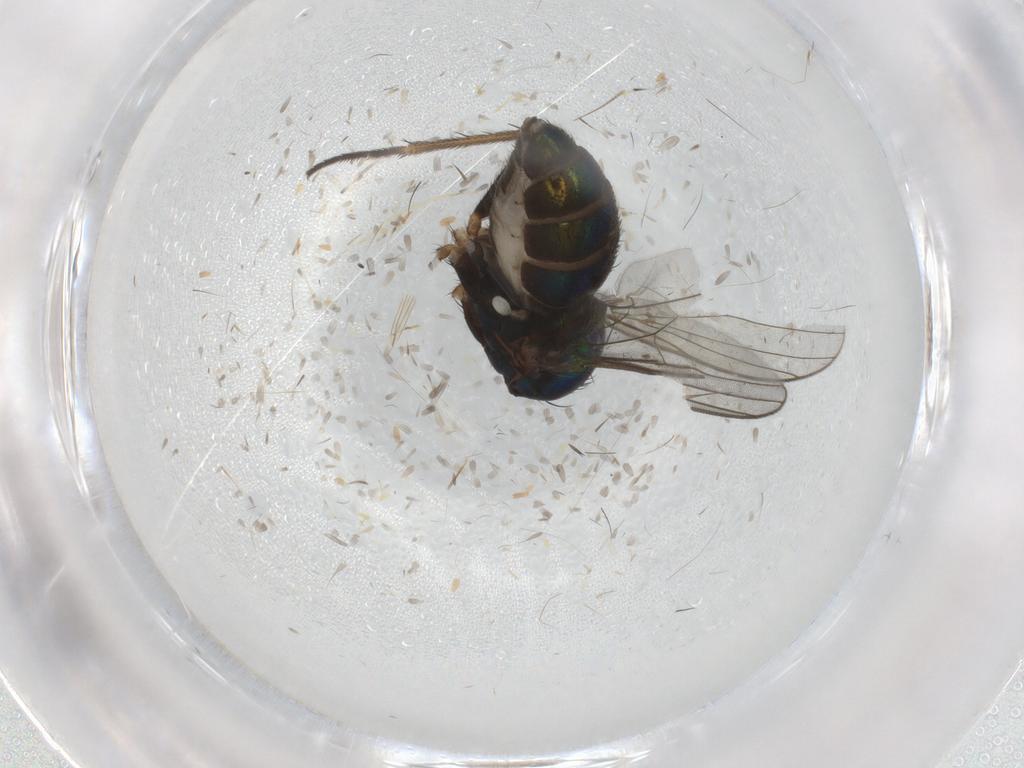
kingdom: Animalia
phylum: Arthropoda
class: Insecta
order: Diptera
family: Dolichopodidae
